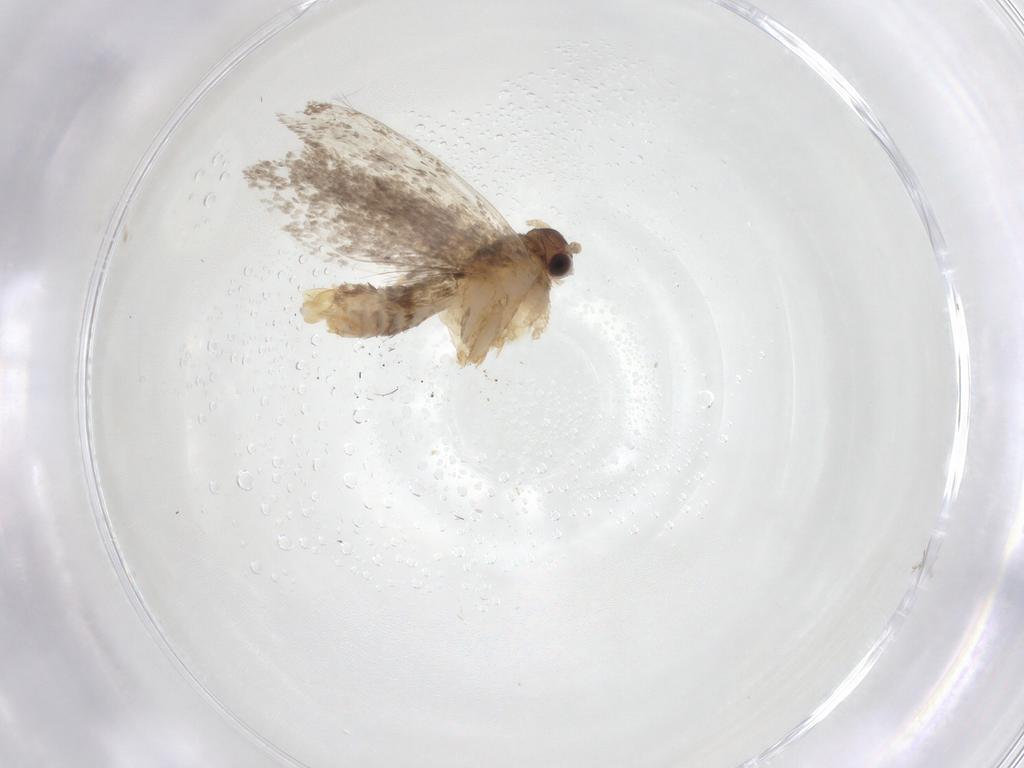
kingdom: Animalia
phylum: Arthropoda
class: Insecta
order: Lepidoptera
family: Dryadaulidae
